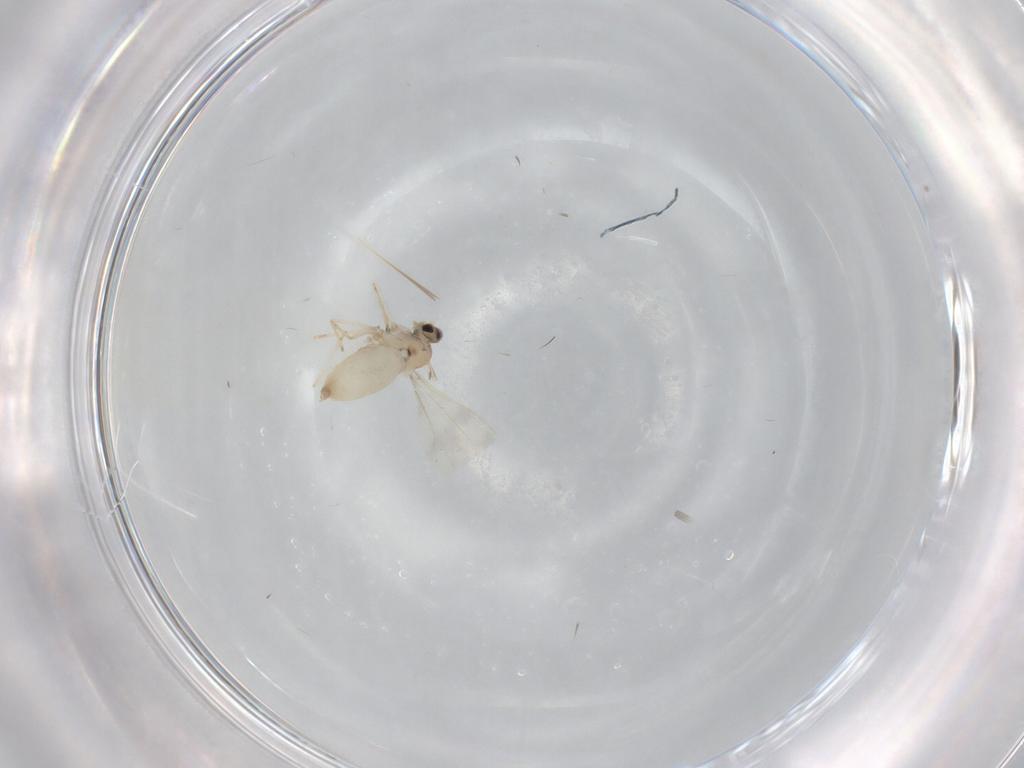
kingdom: Animalia
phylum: Arthropoda
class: Insecta
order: Diptera
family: Cecidomyiidae
